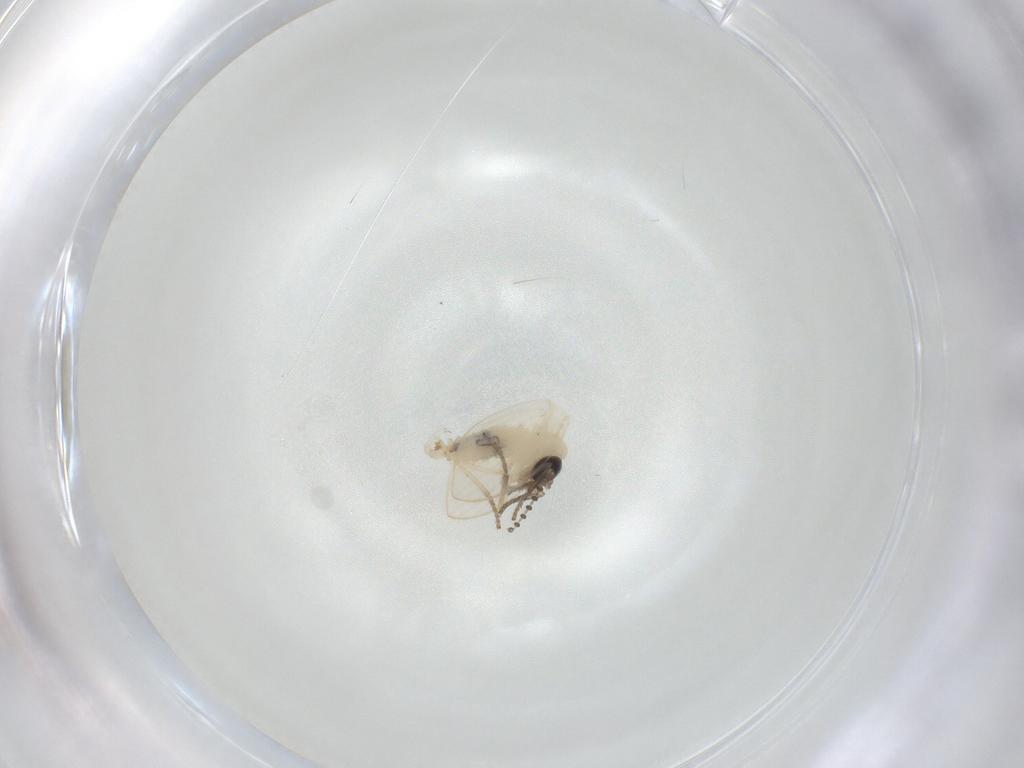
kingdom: Animalia
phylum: Arthropoda
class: Insecta
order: Diptera
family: Psychodidae
